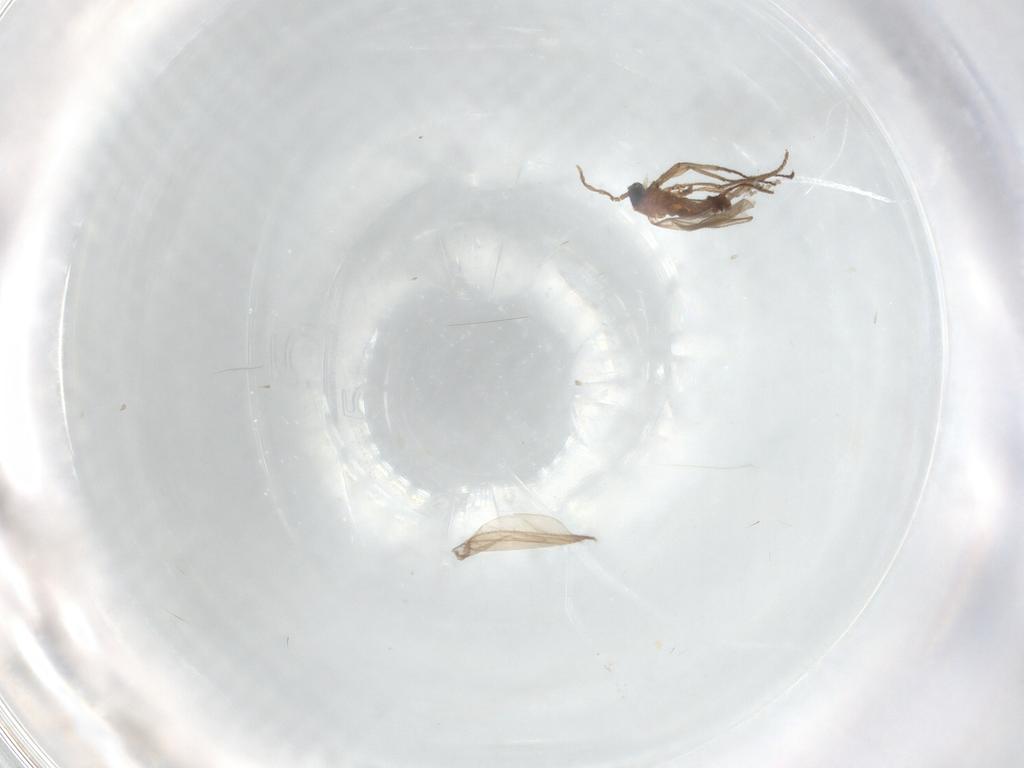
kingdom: Animalia
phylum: Arthropoda
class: Insecta
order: Diptera
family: Cecidomyiidae
